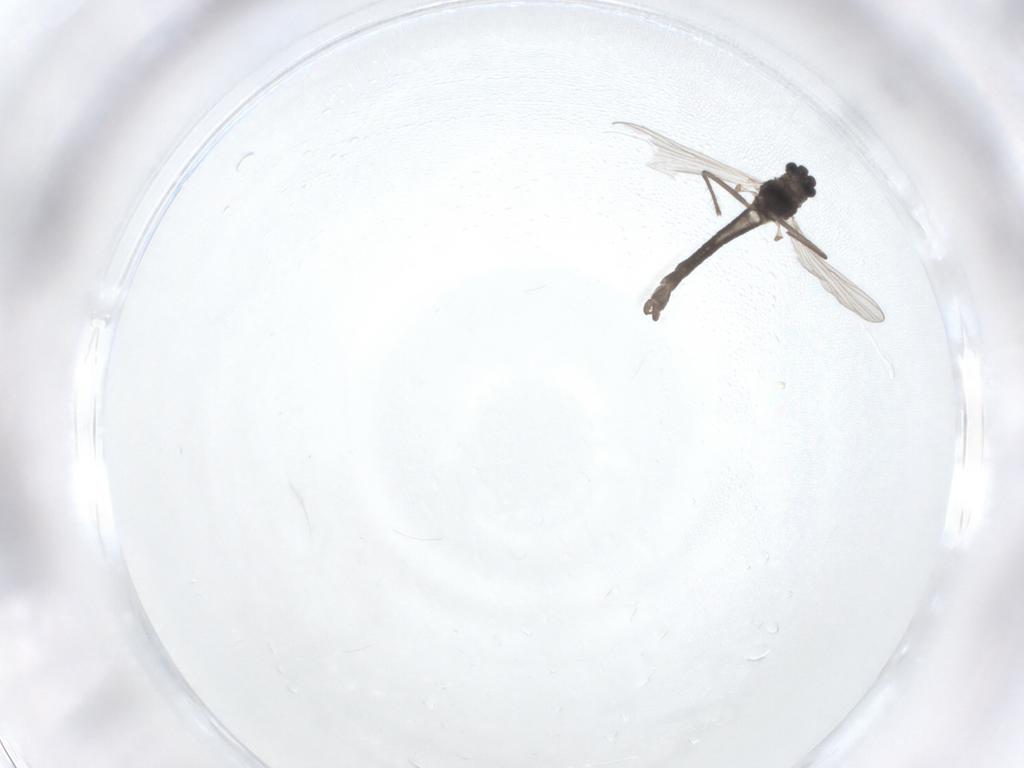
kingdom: Animalia
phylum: Arthropoda
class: Insecta
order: Diptera
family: Chironomidae
